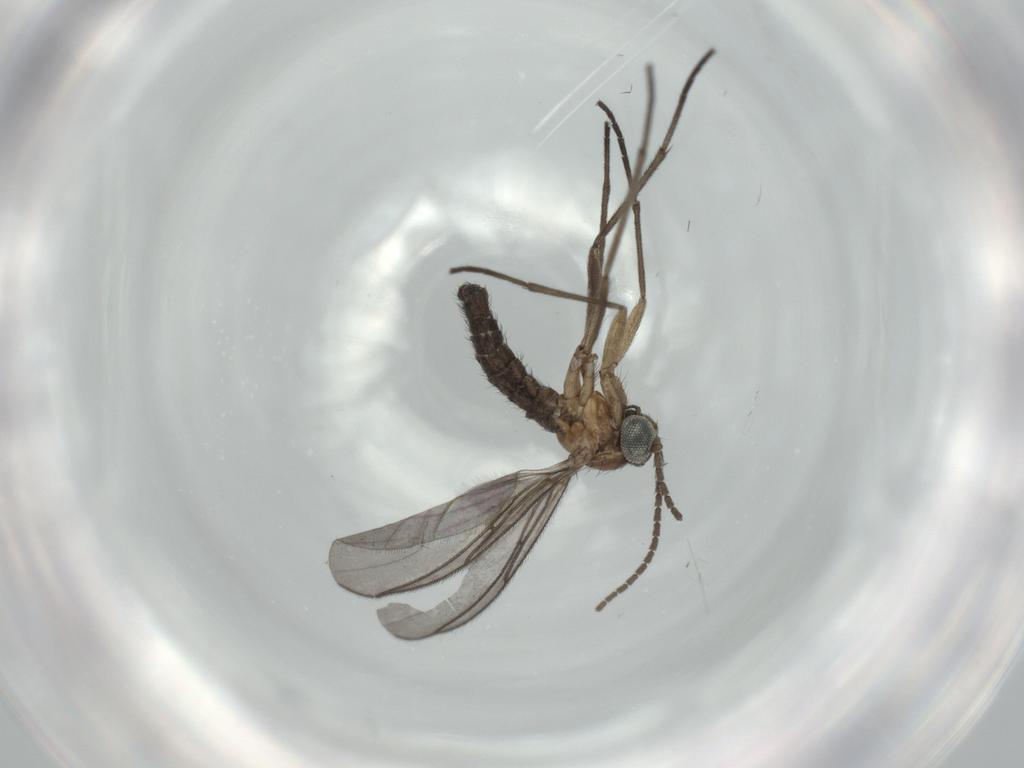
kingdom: Animalia
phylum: Arthropoda
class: Insecta
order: Diptera
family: Sciaridae
